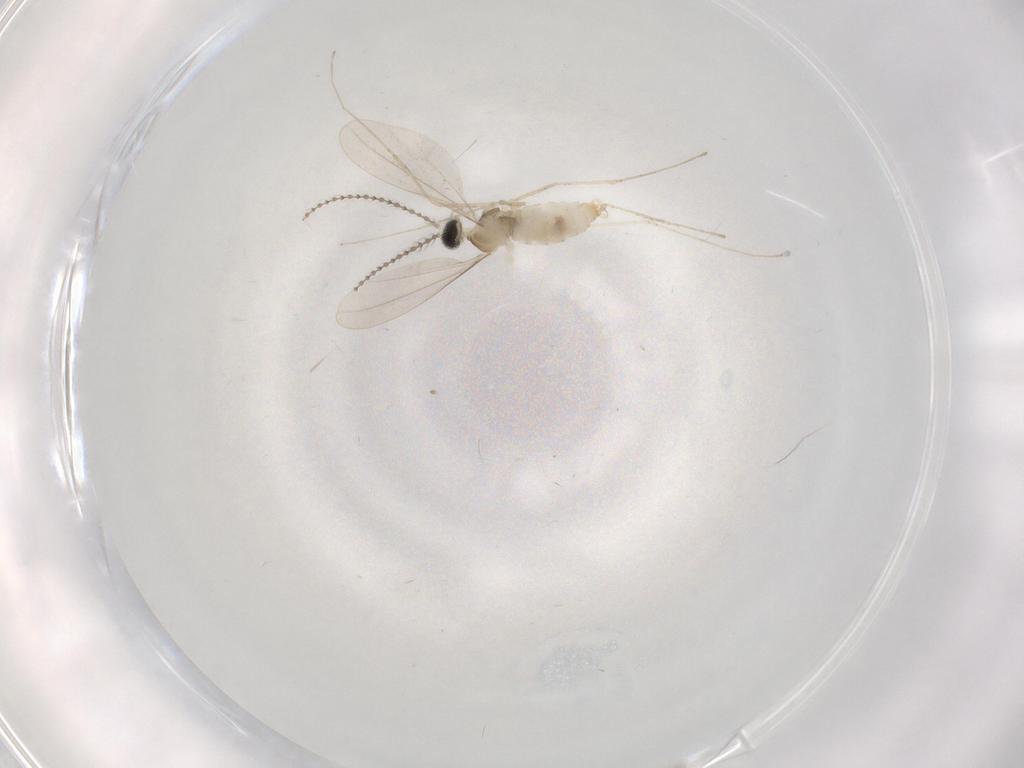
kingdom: Animalia
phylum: Arthropoda
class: Insecta
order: Diptera
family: Cecidomyiidae
